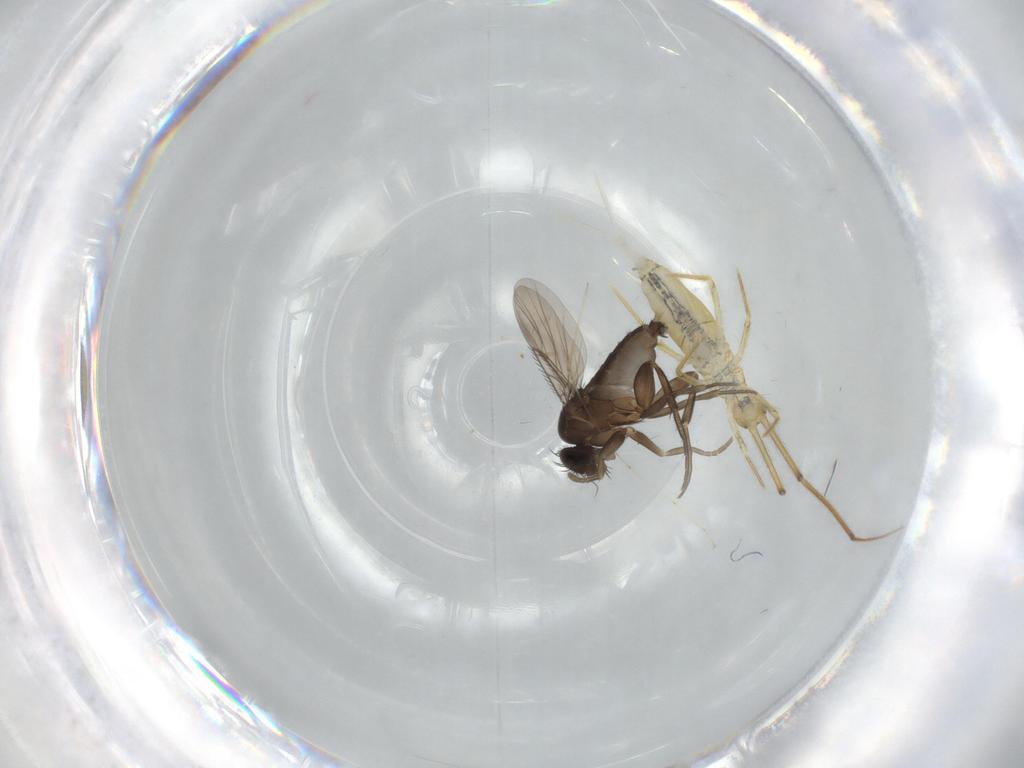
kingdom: Animalia
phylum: Arthropoda
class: Insecta
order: Diptera
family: Phoridae
